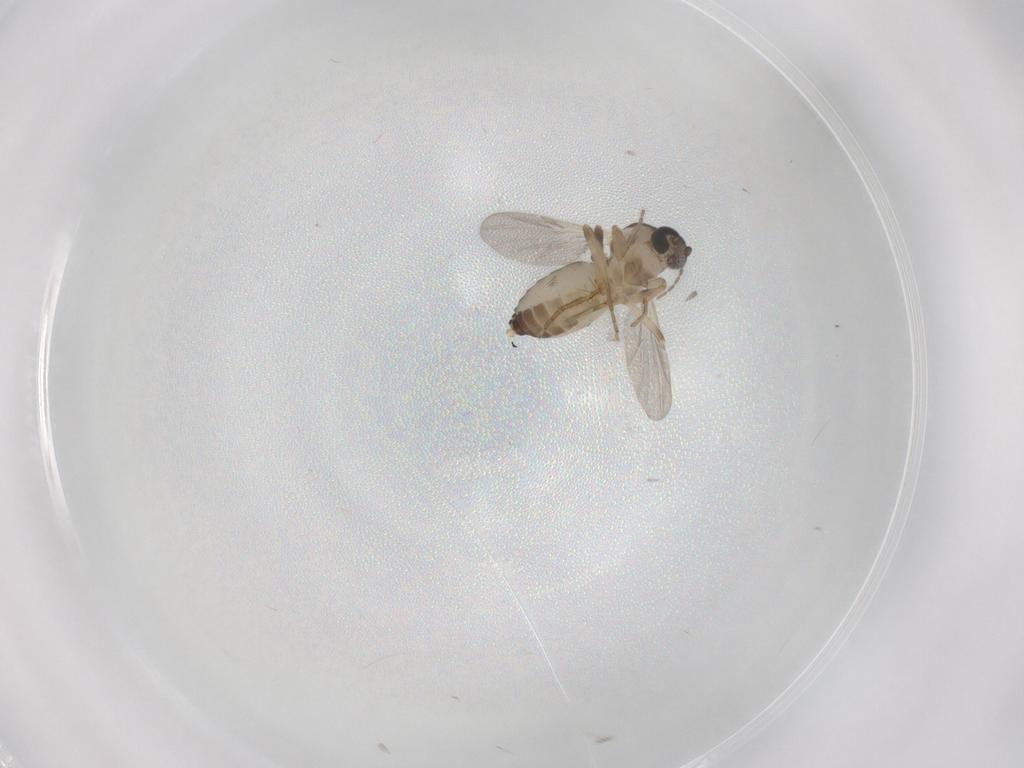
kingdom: Animalia
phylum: Arthropoda
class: Insecta
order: Diptera
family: Ceratopogonidae
